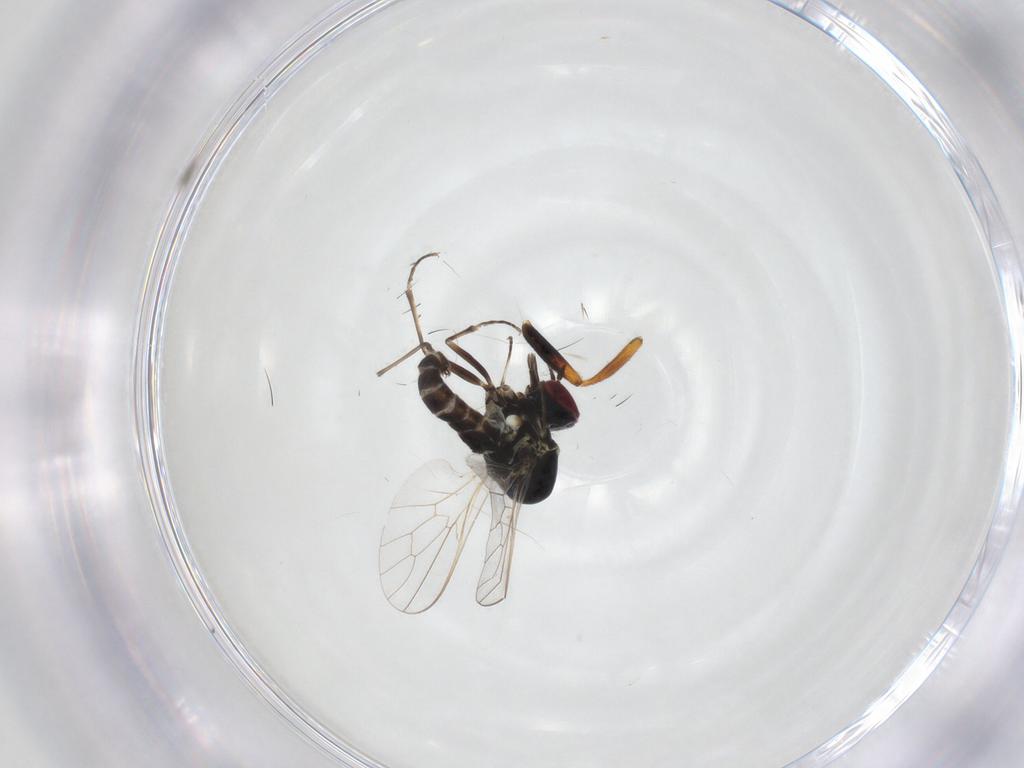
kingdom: Animalia
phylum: Arthropoda
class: Insecta
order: Diptera
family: Mythicomyiidae
